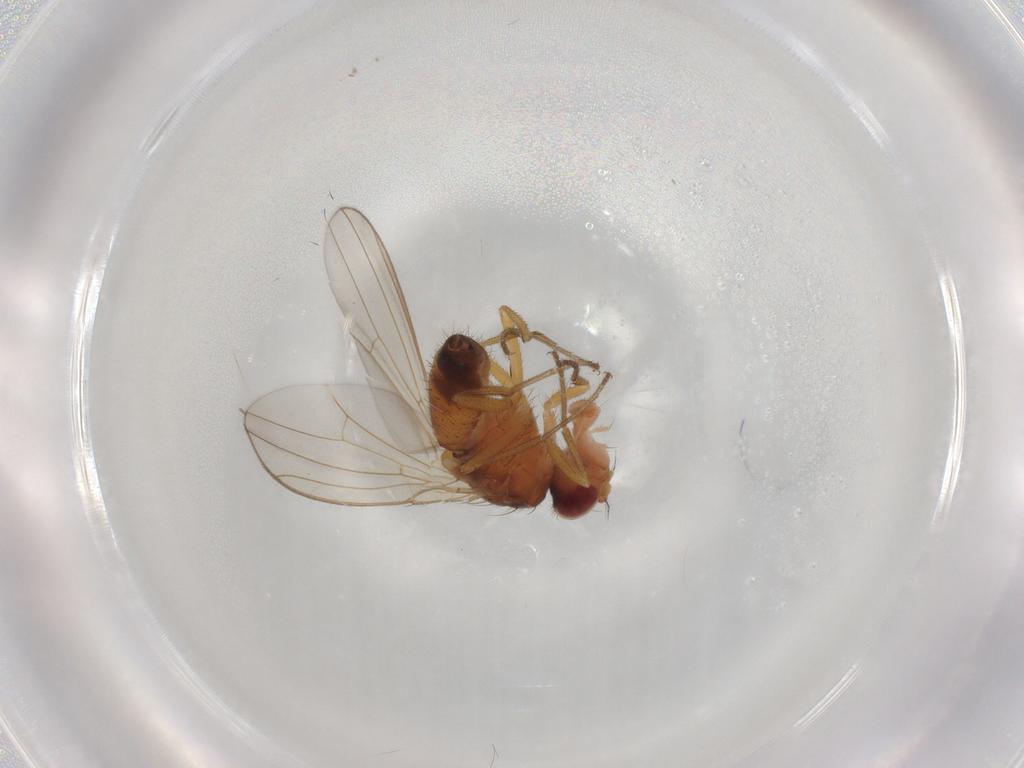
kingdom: Animalia
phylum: Arthropoda
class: Insecta
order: Diptera
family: Drosophilidae
